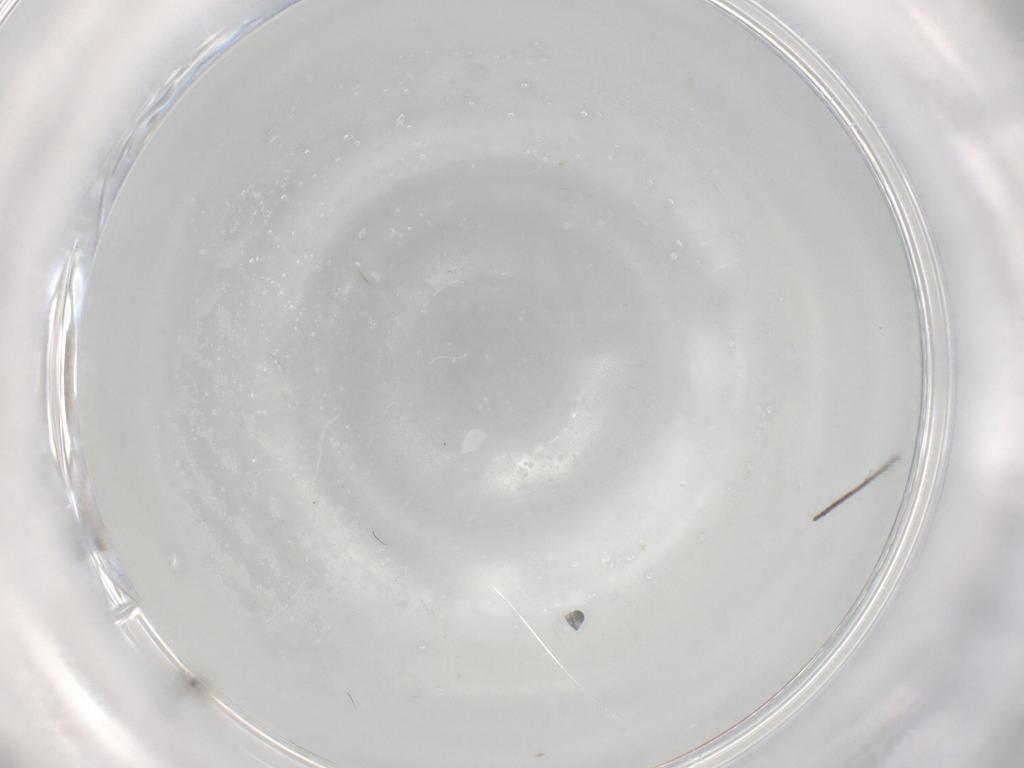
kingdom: Animalia
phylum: Arthropoda
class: Insecta
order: Diptera
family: Cecidomyiidae
